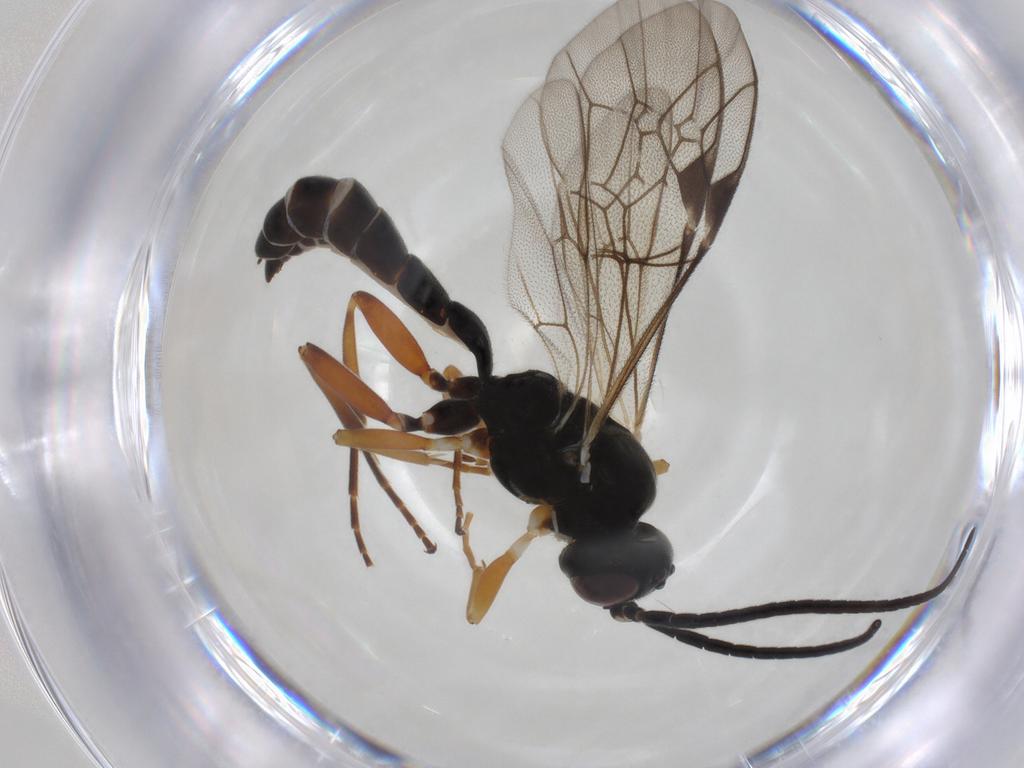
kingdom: Animalia
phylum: Arthropoda
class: Insecta
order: Hymenoptera
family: Ichneumonidae
